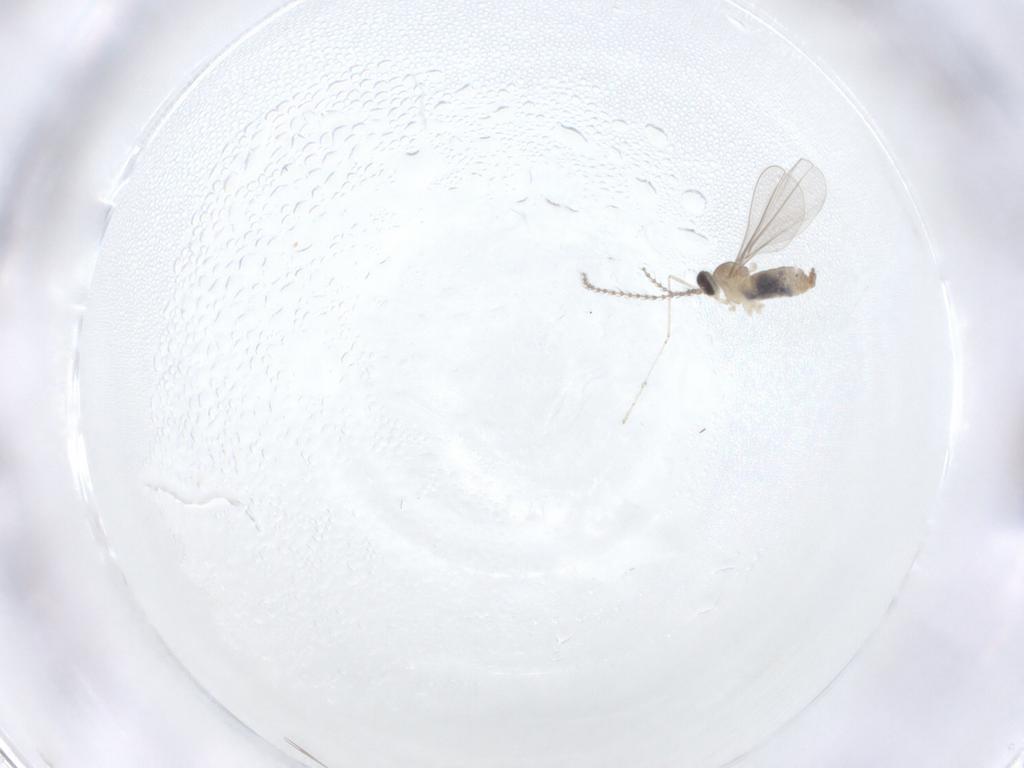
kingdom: Animalia
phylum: Arthropoda
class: Insecta
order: Diptera
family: Cecidomyiidae
